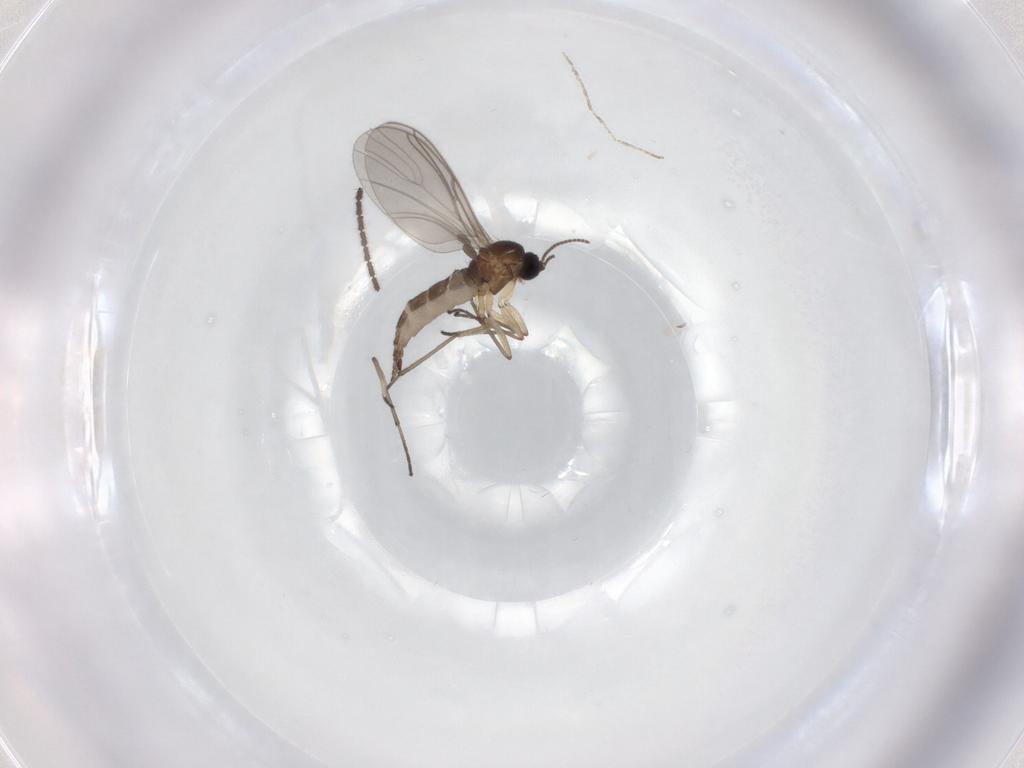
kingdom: Animalia
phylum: Arthropoda
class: Insecta
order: Diptera
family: Sciaridae
